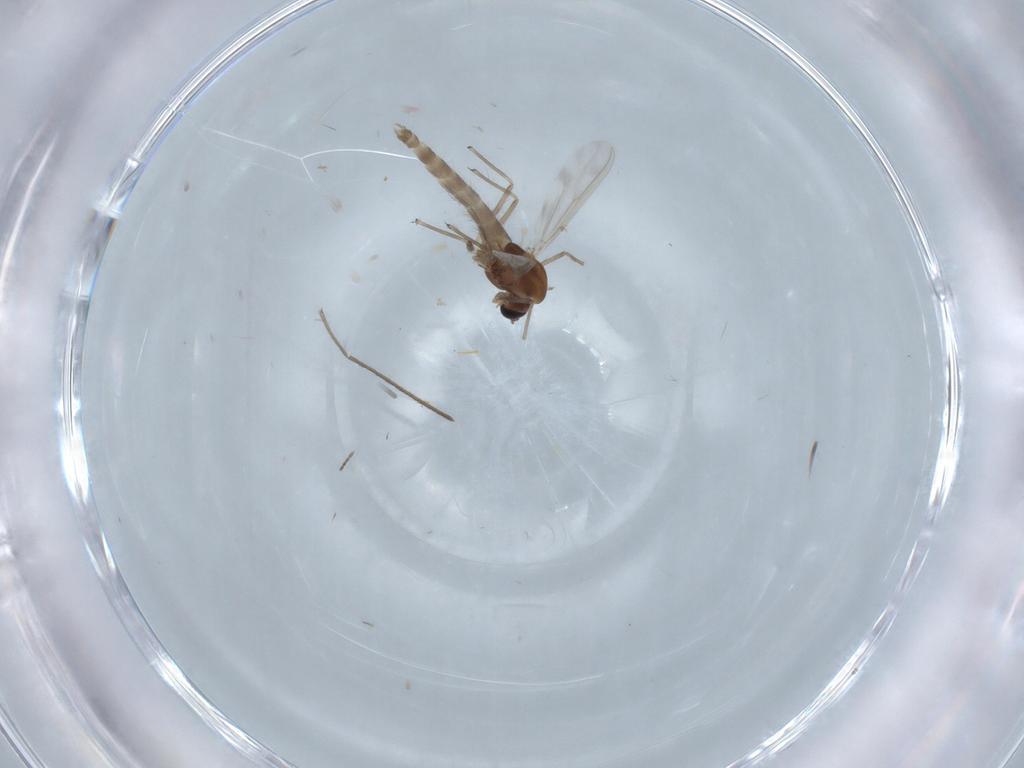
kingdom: Animalia
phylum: Arthropoda
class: Insecta
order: Diptera
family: Chironomidae
